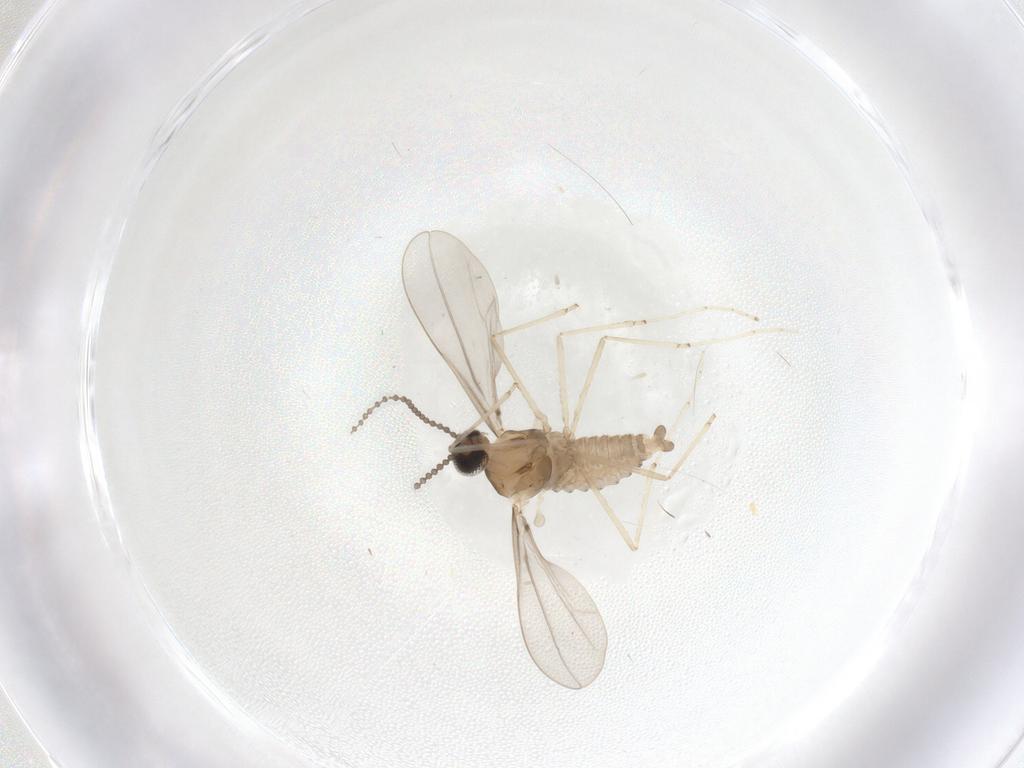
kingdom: Animalia
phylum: Arthropoda
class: Insecta
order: Diptera
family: Cecidomyiidae
